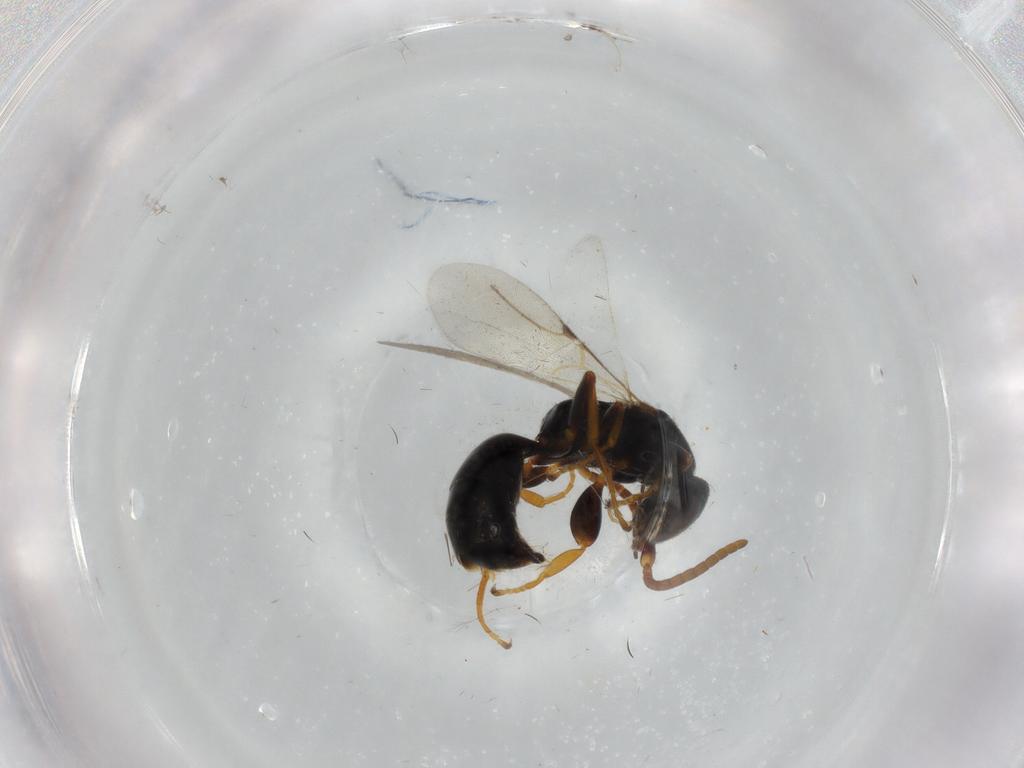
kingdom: Animalia
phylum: Arthropoda
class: Insecta
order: Hymenoptera
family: Bethylidae
